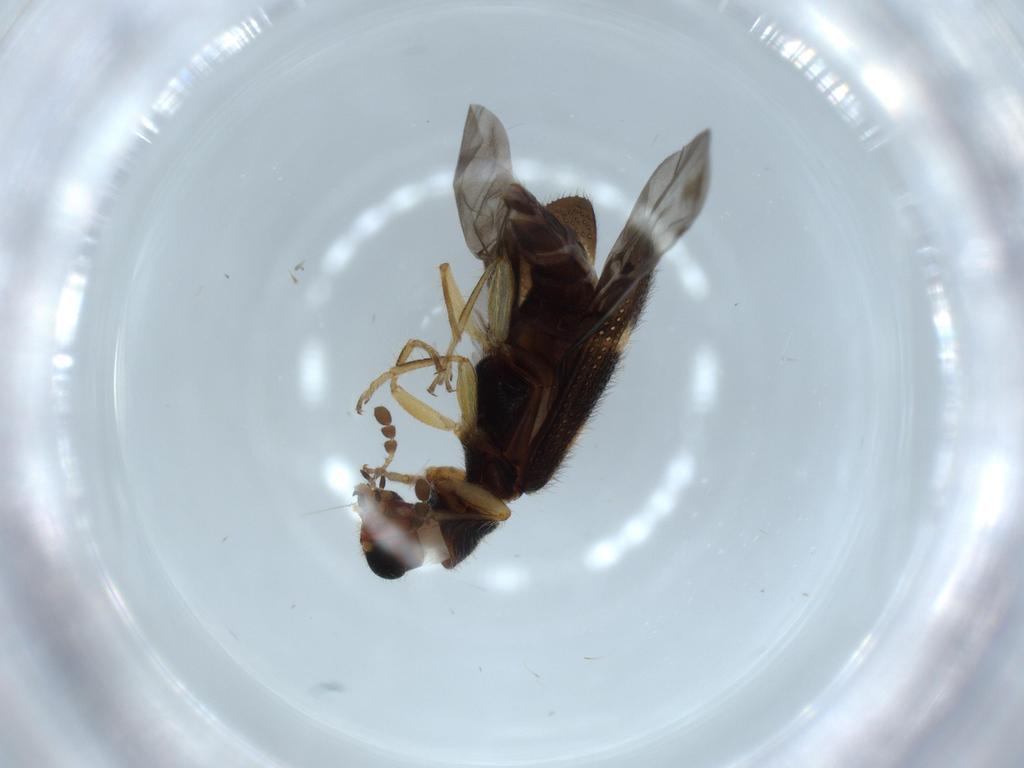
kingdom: Animalia
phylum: Arthropoda
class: Insecta
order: Coleoptera
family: Cleridae
